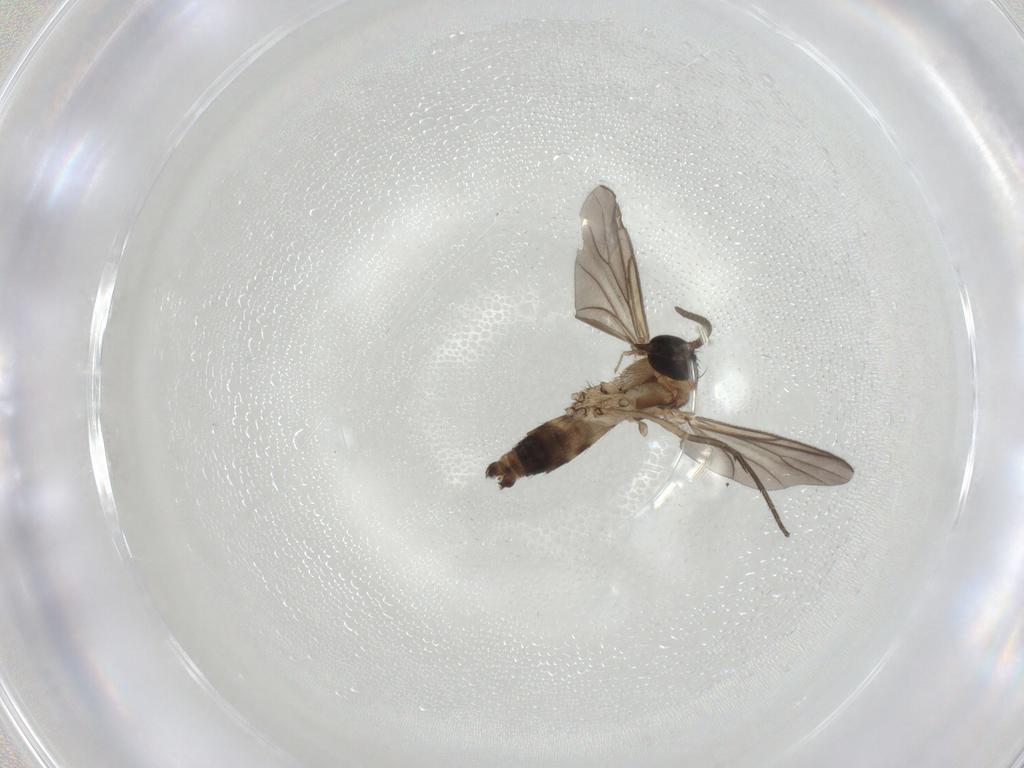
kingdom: Animalia
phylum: Arthropoda
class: Insecta
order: Diptera
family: Mycetophilidae
